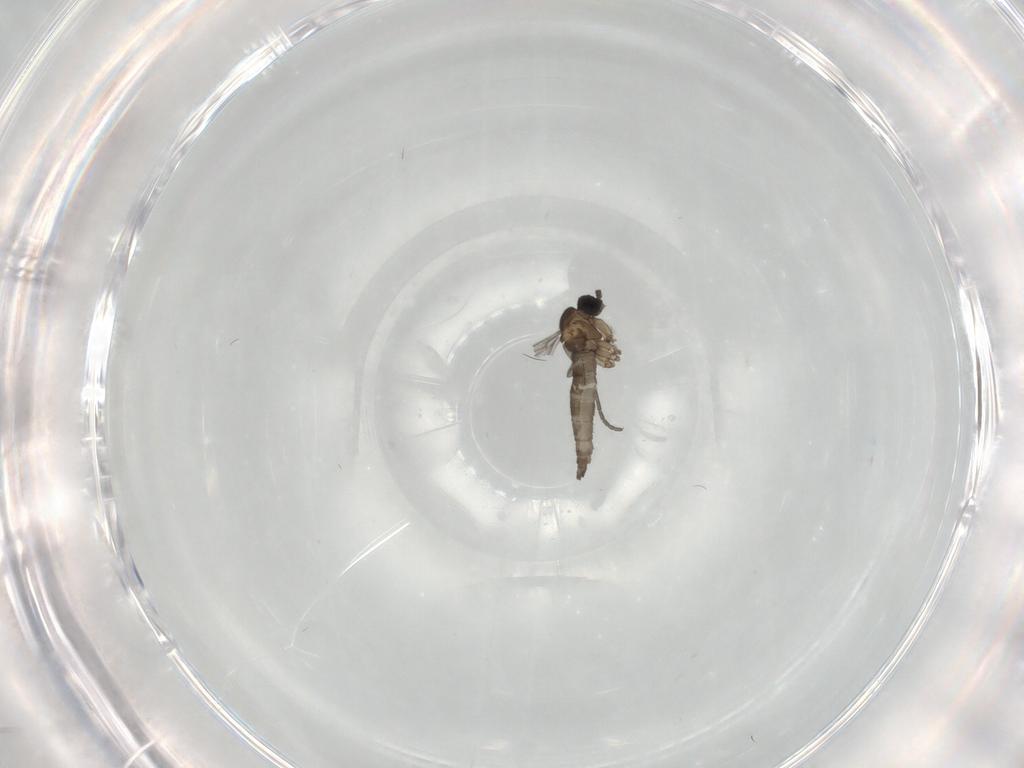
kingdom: Animalia
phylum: Arthropoda
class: Insecta
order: Diptera
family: Sciaridae
